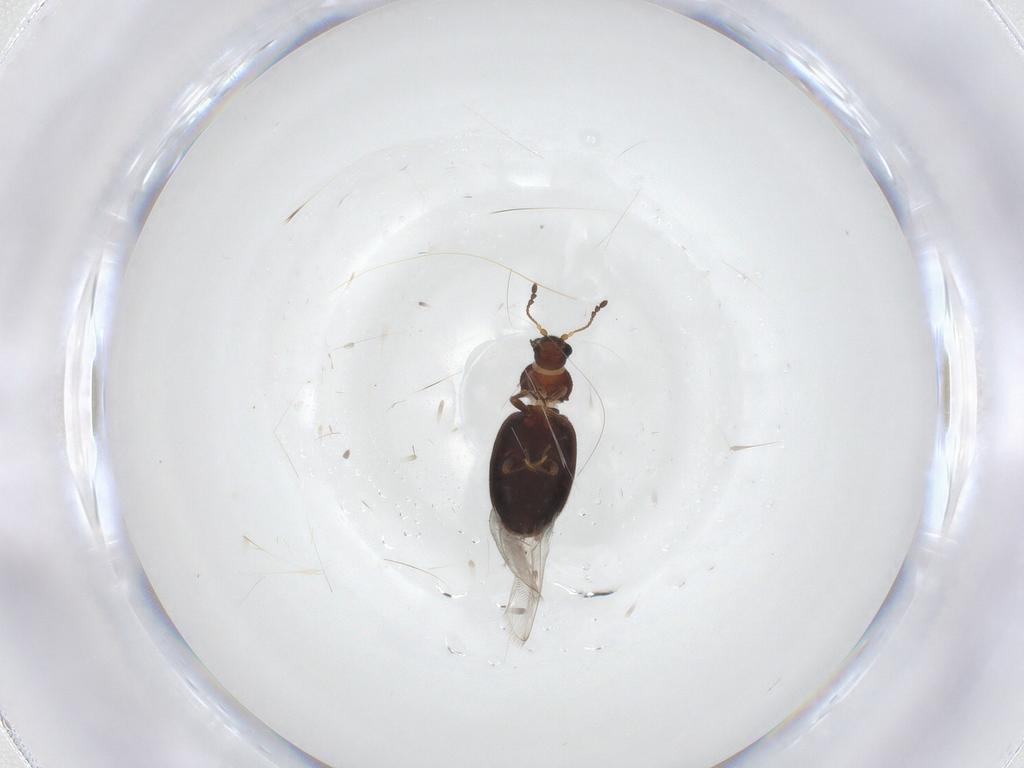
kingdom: Animalia
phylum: Arthropoda
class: Insecta
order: Coleoptera
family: Latridiidae
